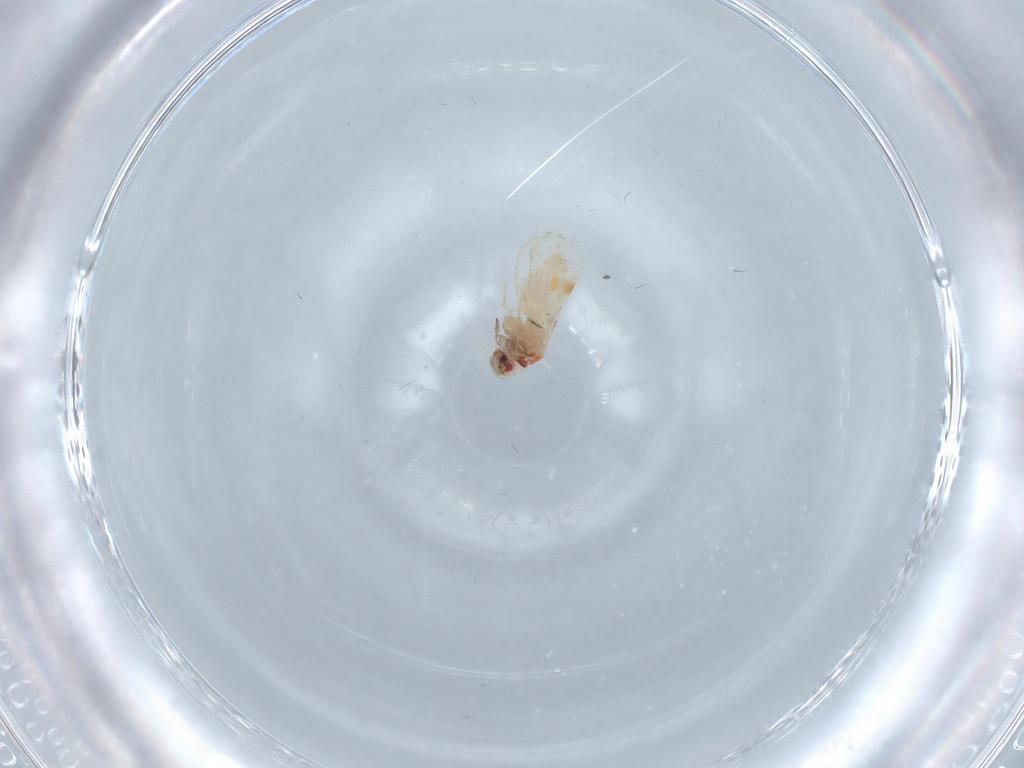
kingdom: Animalia
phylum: Arthropoda
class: Insecta
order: Hemiptera
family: Aleyrodidae
